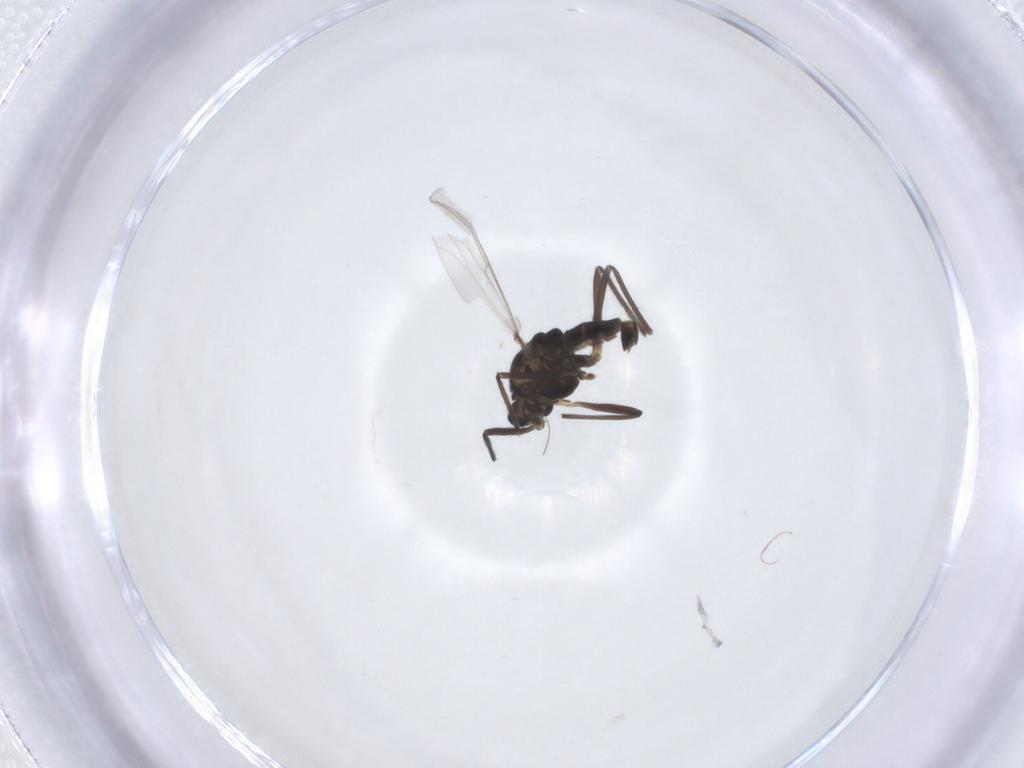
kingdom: Animalia
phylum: Arthropoda
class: Insecta
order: Diptera
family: Chironomidae
